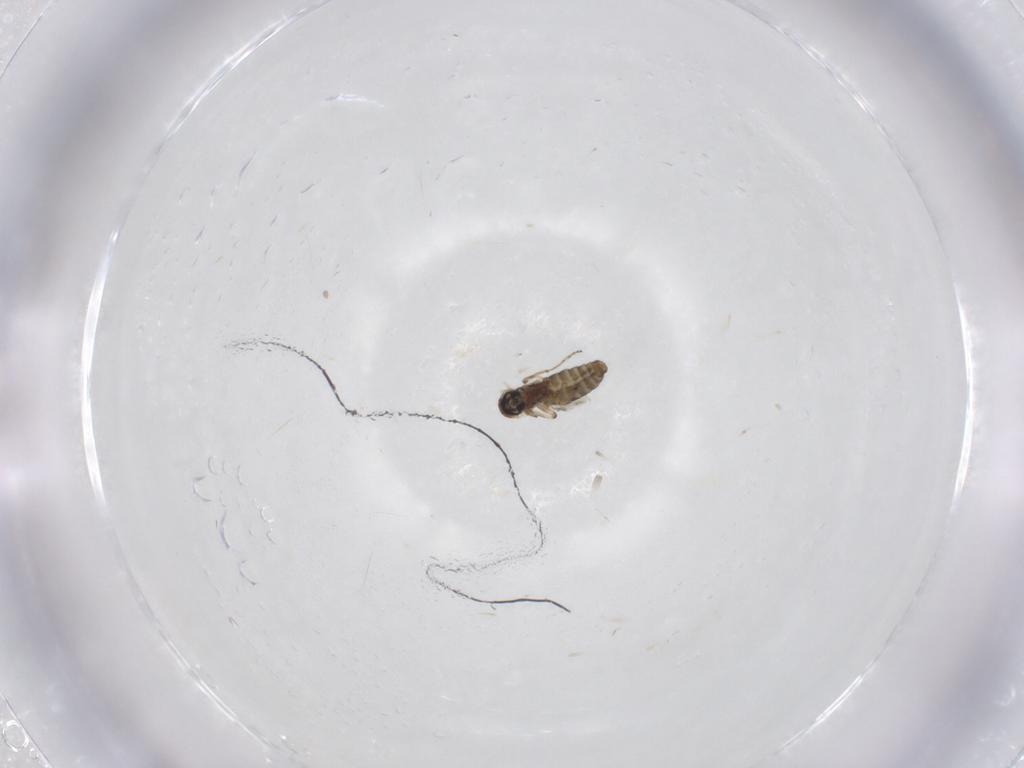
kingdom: Animalia
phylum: Arthropoda
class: Insecta
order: Diptera
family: Ceratopogonidae
